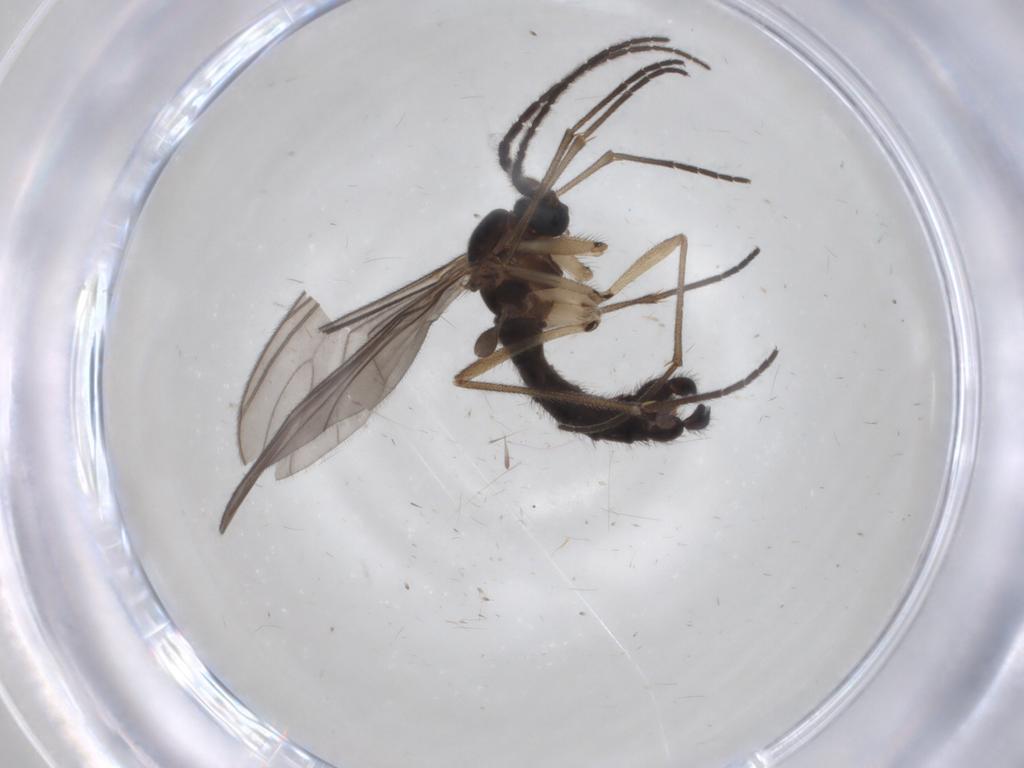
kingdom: Animalia
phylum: Arthropoda
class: Insecta
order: Diptera
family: Sciaridae
